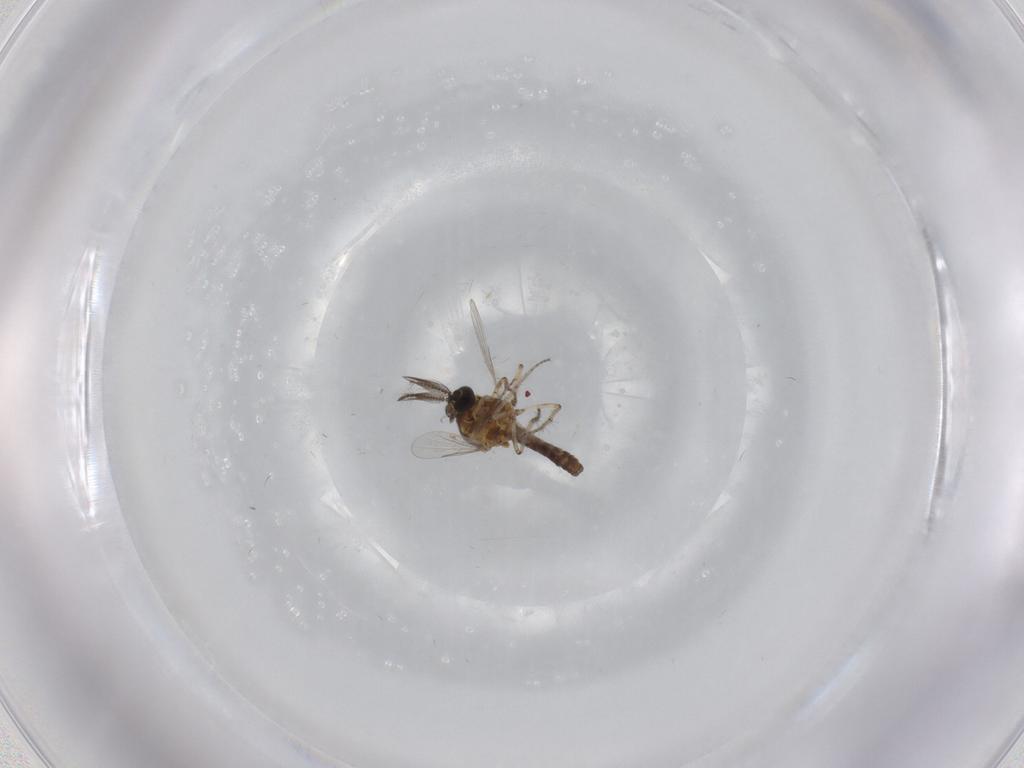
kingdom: Animalia
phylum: Arthropoda
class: Insecta
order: Diptera
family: Ceratopogonidae
